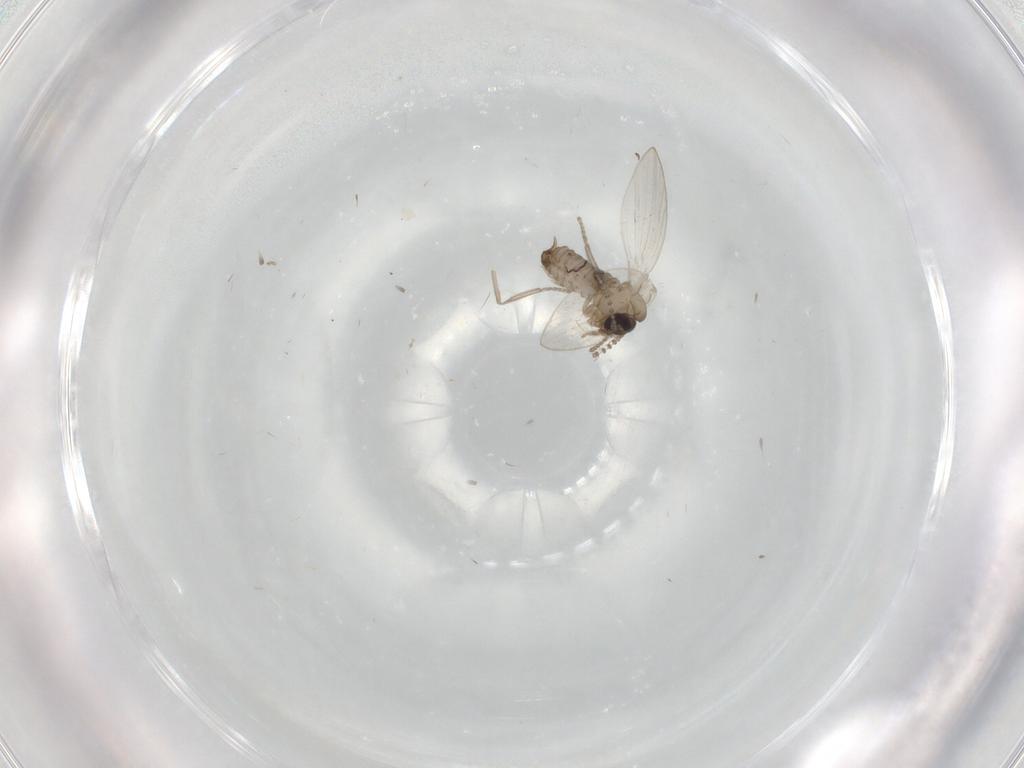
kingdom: Animalia
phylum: Arthropoda
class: Insecta
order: Diptera
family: Psychodidae
